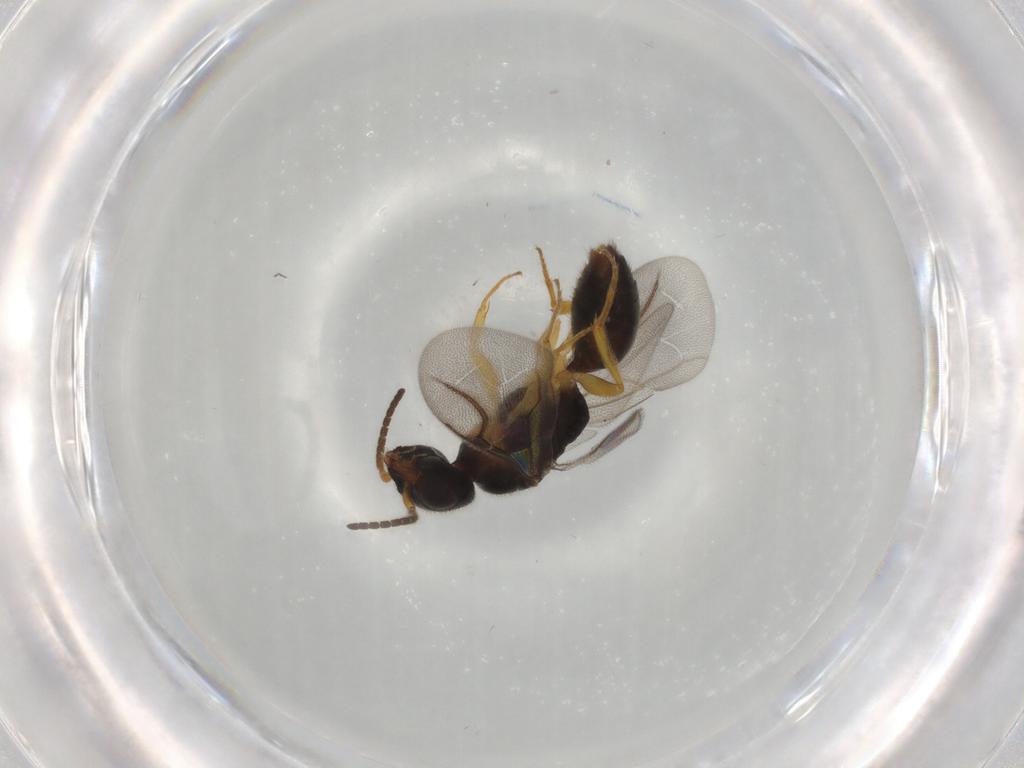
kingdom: Animalia
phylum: Arthropoda
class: Insecta
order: Hymenoptera
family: Bethylidae
